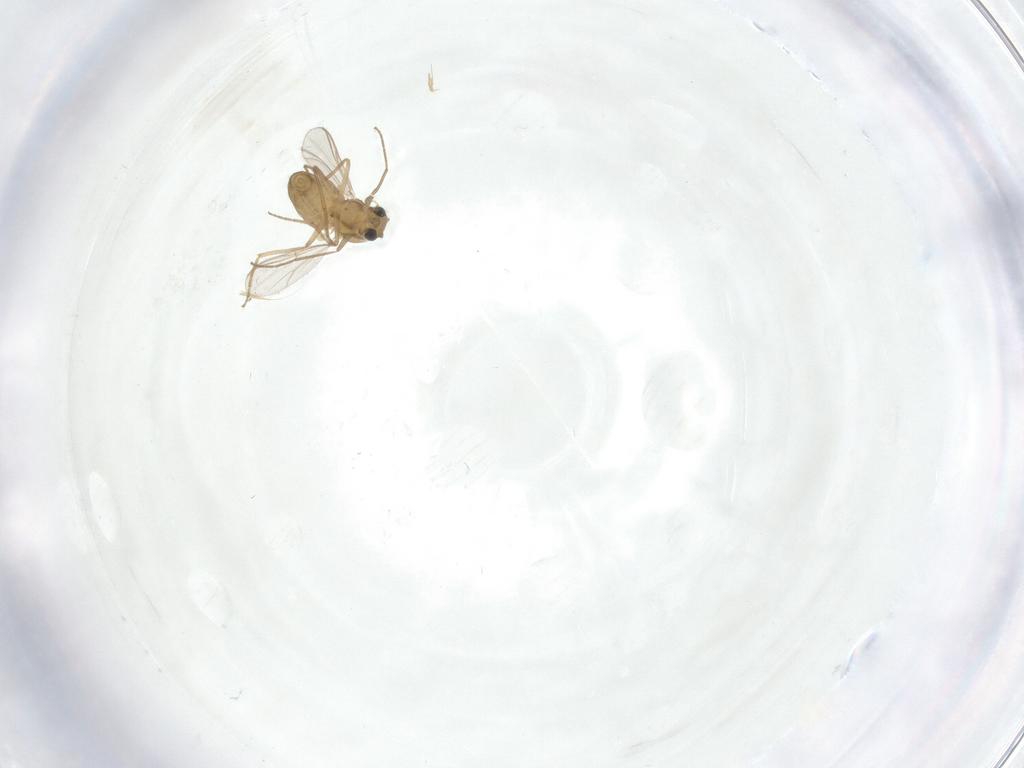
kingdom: Animalia
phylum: Arthropoda
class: Insecta
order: Diptera
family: Chironomidae
